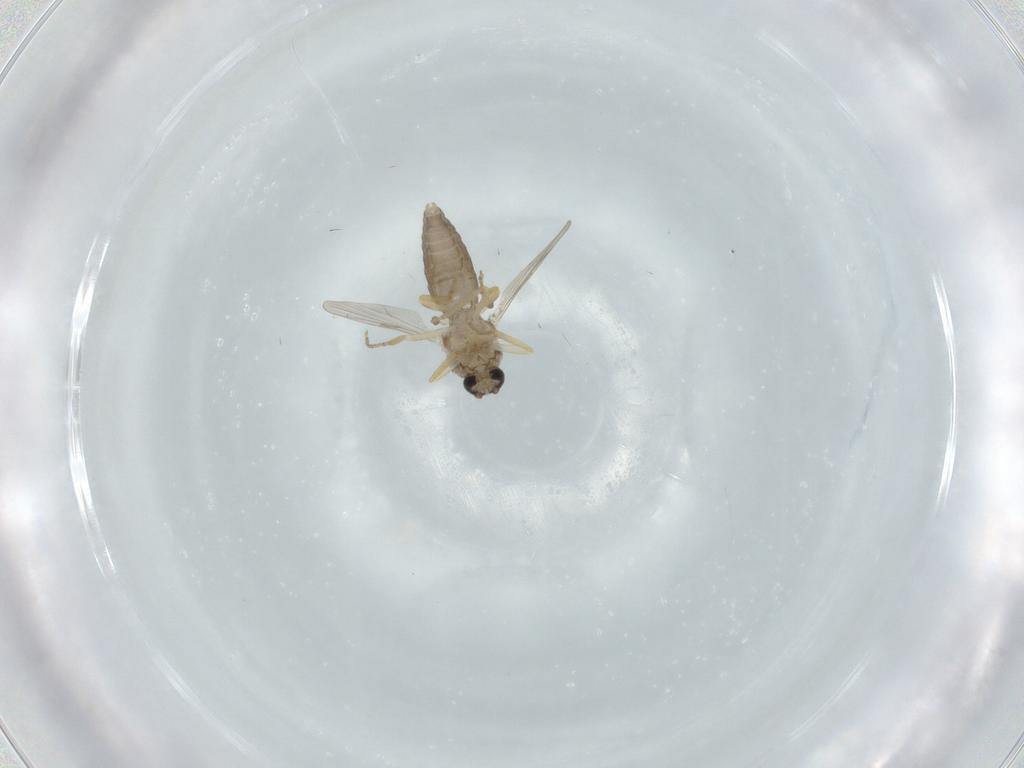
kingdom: Animalia
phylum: Arthropoda
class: Insecta
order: Diptera
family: Ceratopogonidae
